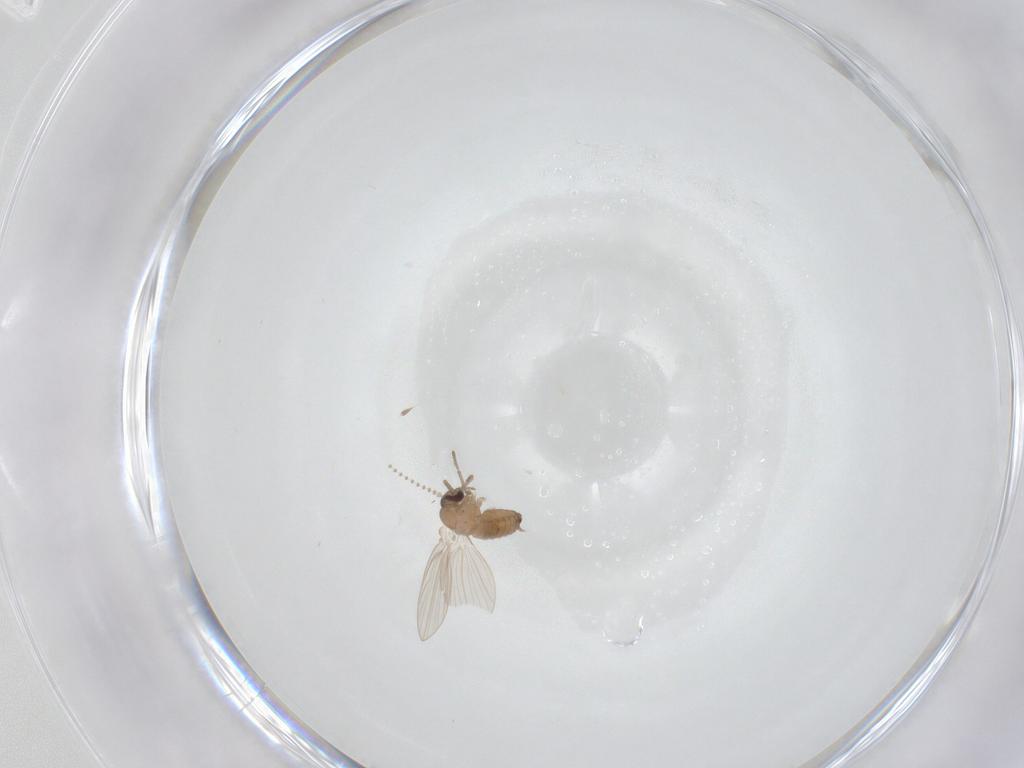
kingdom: Animalia
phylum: Arthropoda
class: Insecta
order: Diptera
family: Psychodidae
